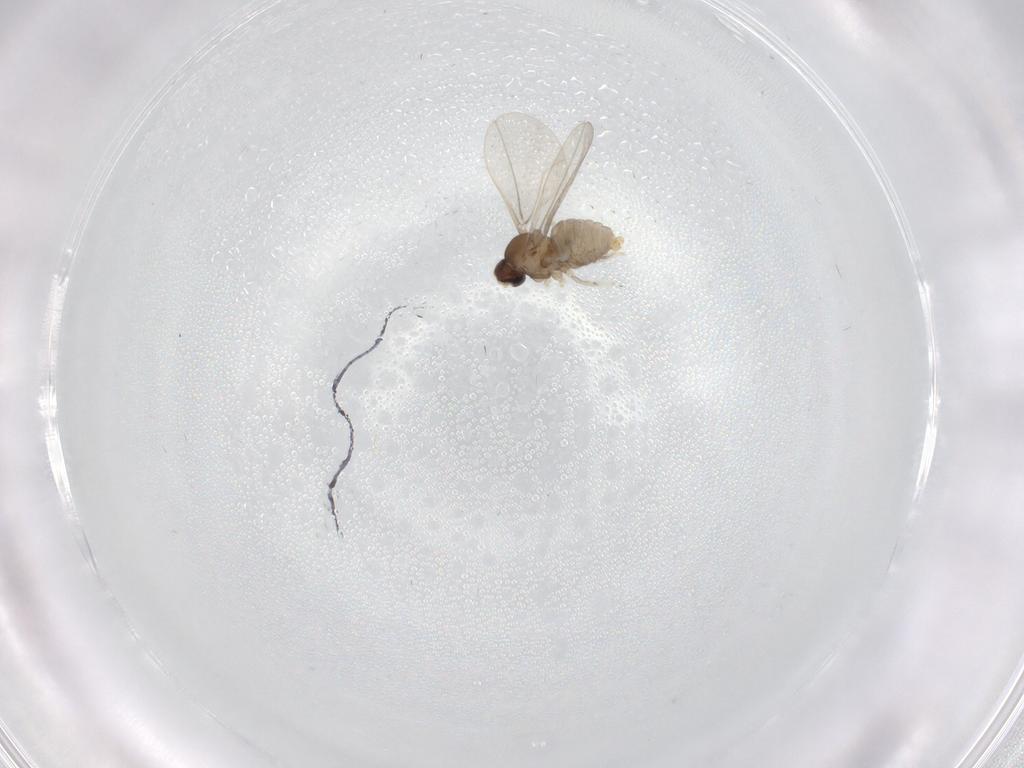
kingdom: Animalia
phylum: Arthropoda
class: Insecta
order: Diptera
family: Cecidomyiidae
